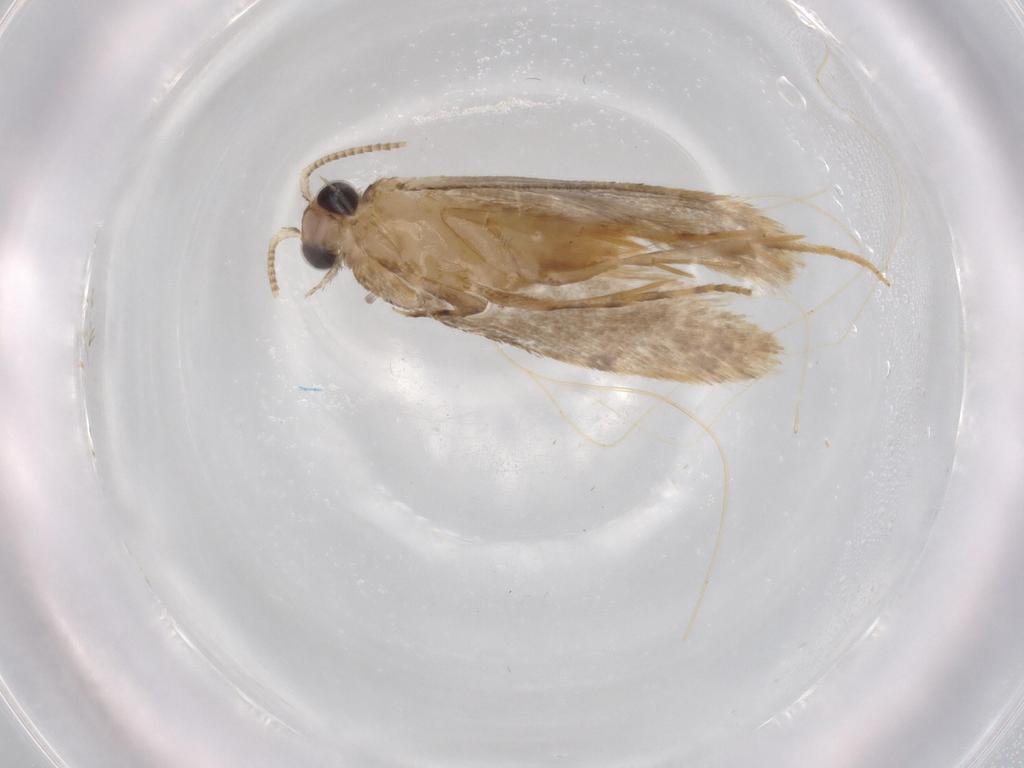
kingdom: Animalia
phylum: Arthropoda
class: Insecta
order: Lepidoptera
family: Tineidae
